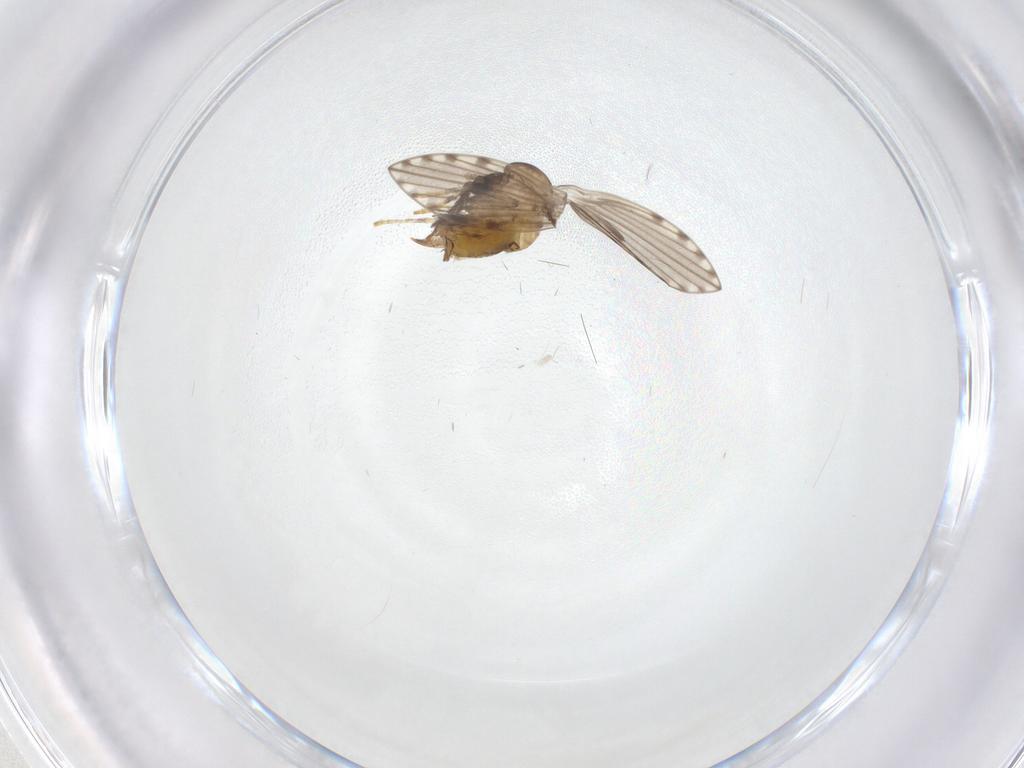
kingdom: Animalia
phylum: Arthropoda
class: Insecta
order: Diptera
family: Psychodidae
